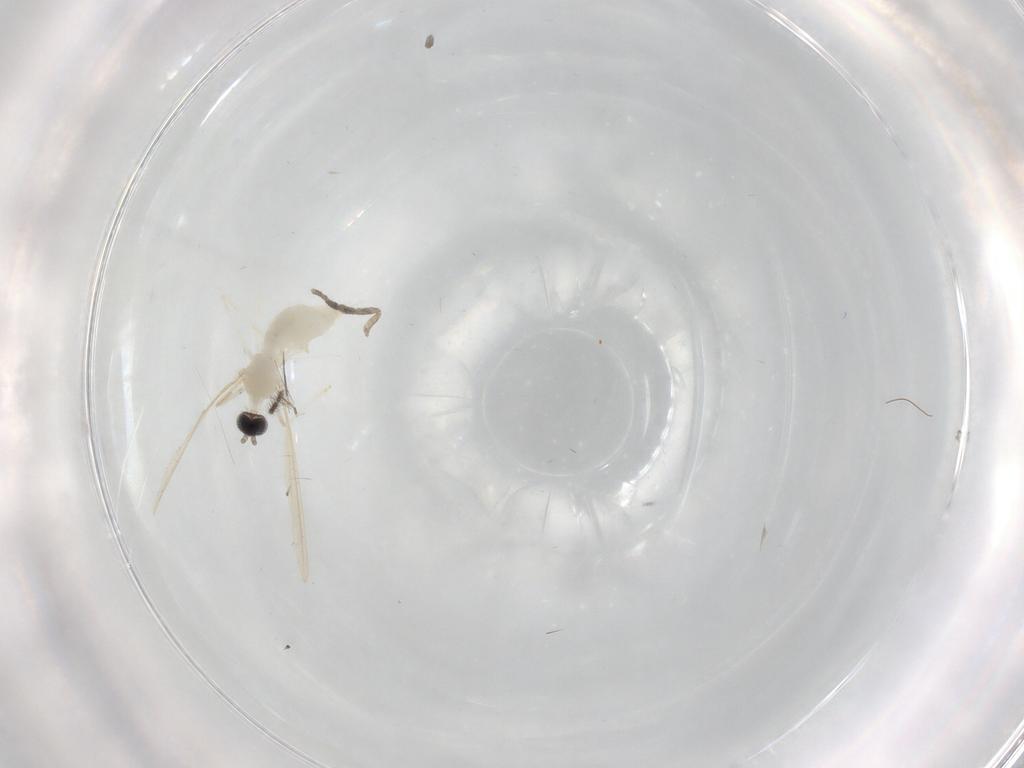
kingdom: Animalia
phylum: Arthropoda
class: Insecta
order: Diptera
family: Cecidomyiidae
